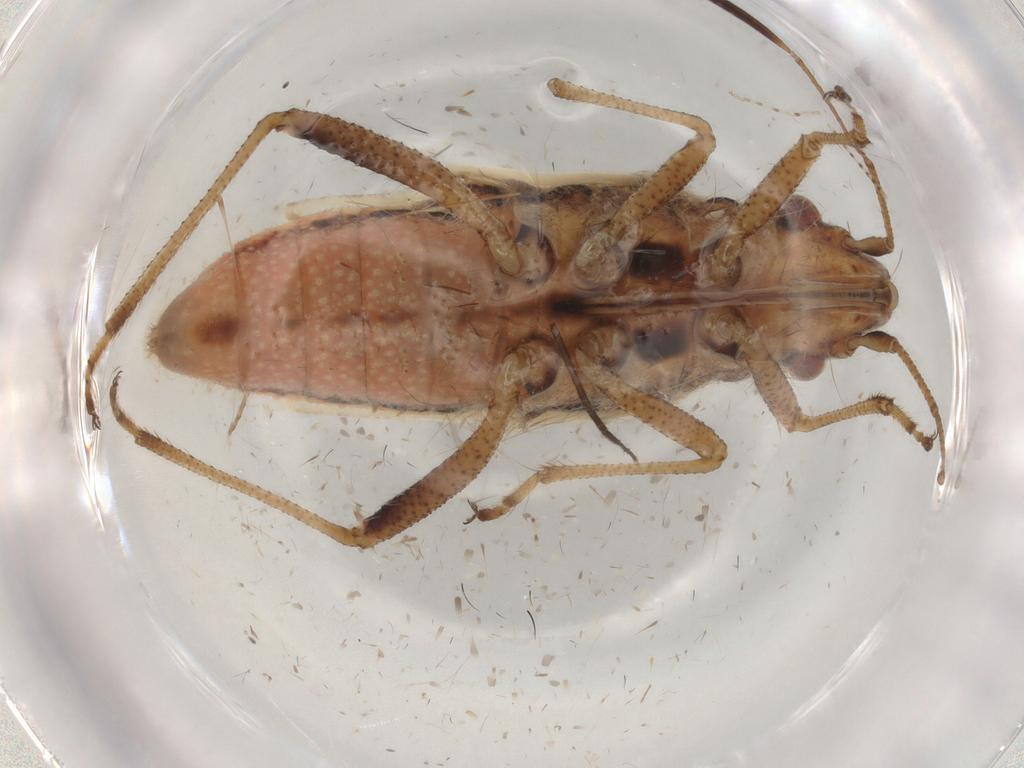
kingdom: Animalia
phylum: Arthropoda
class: Insecta
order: Hemiptera
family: Rhopalidae
